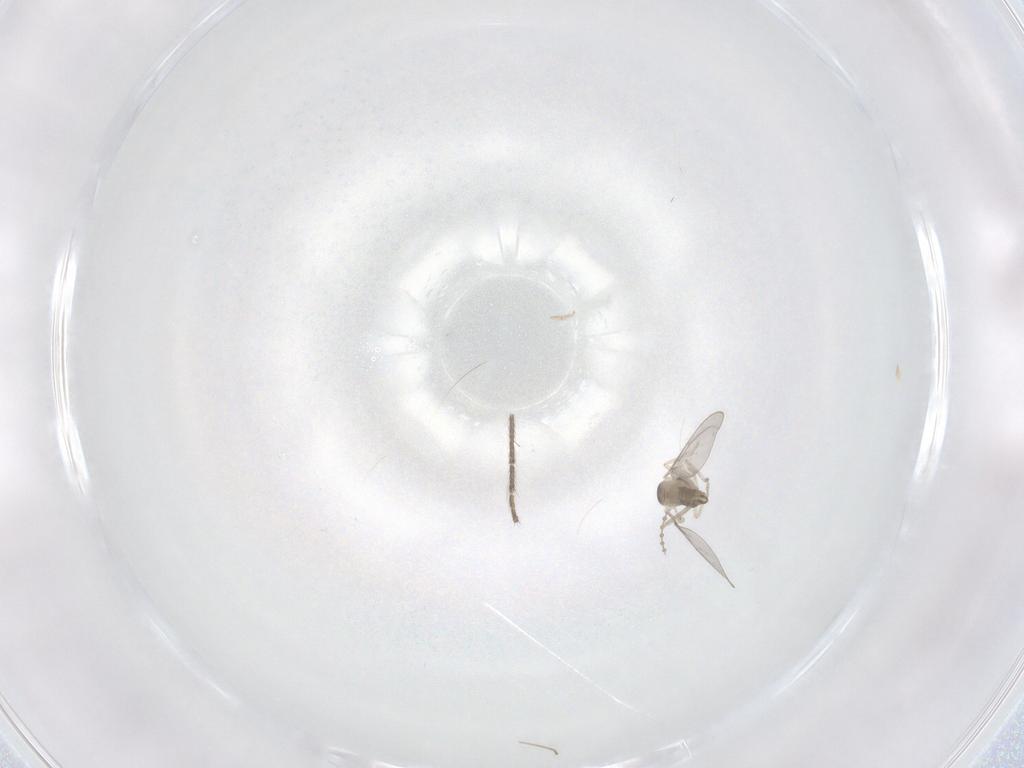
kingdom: Animalia
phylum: Arthropoda
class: Insecta
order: Diptera
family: Cecidomyiidae
